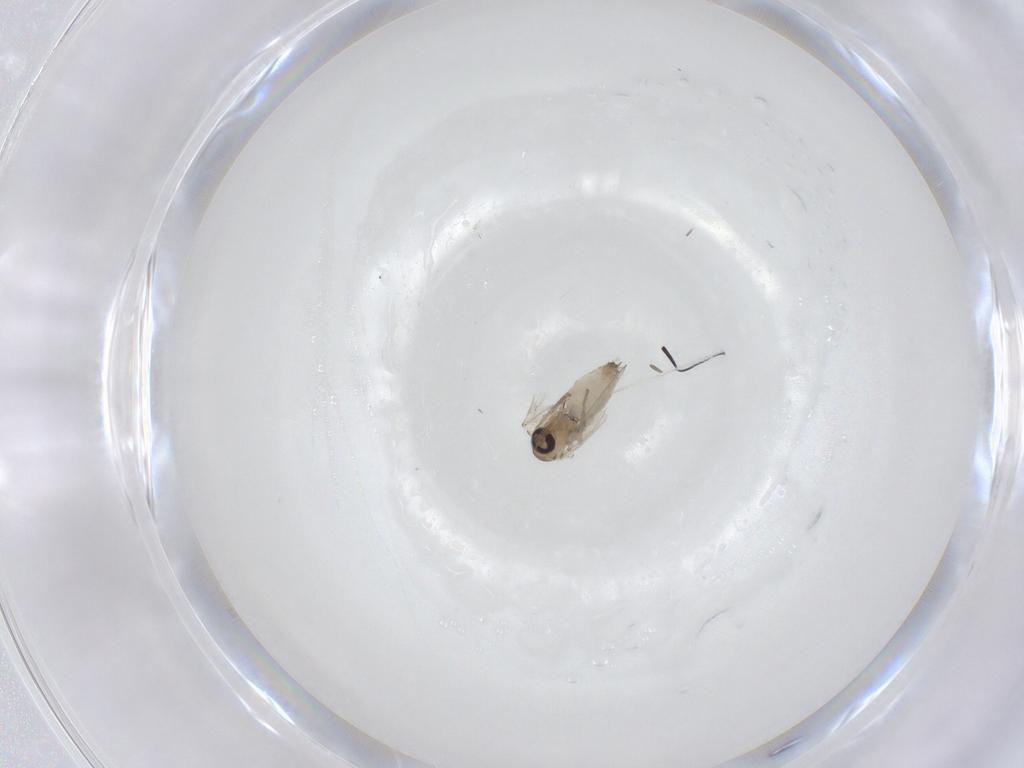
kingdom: Animalia
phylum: Arthropoda
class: Insecta
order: Diptera
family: Psychodidae
